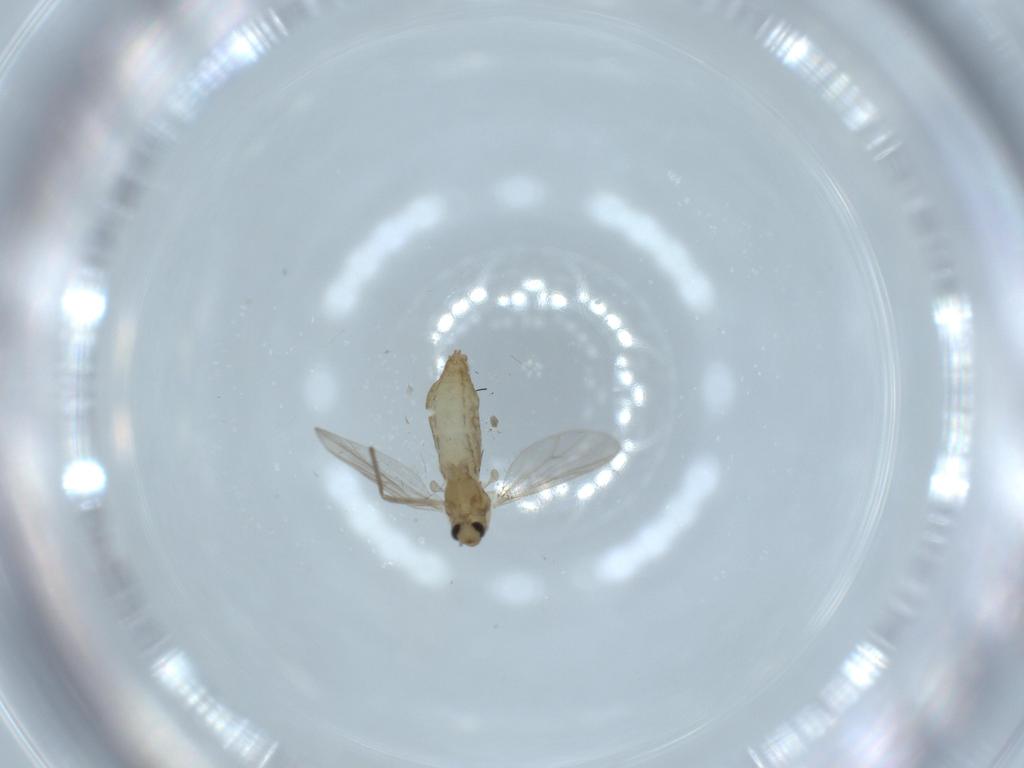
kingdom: Animalia
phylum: Arthropoda
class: Insecta
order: Diptera
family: Chironomidae
